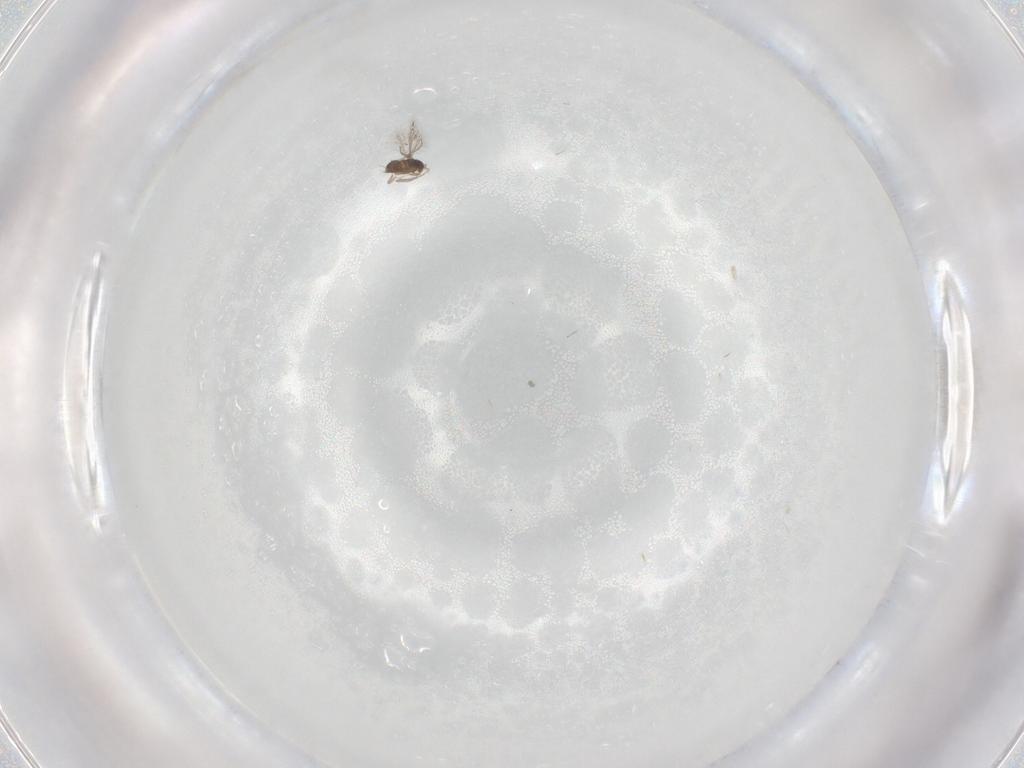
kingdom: Animalia
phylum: Arthropoda
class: Insecta
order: Hymenoptera
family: Mymaridae
